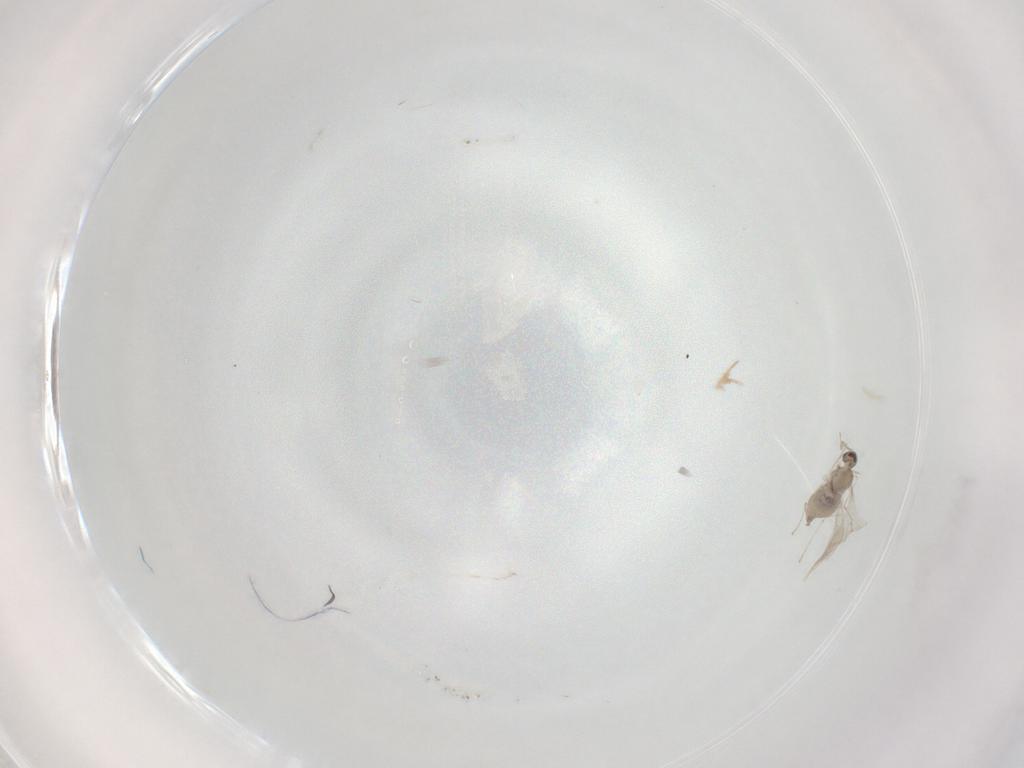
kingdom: Animalia
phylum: Arthropoda
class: Insecta
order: Diptera
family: Cecidomyiidae
